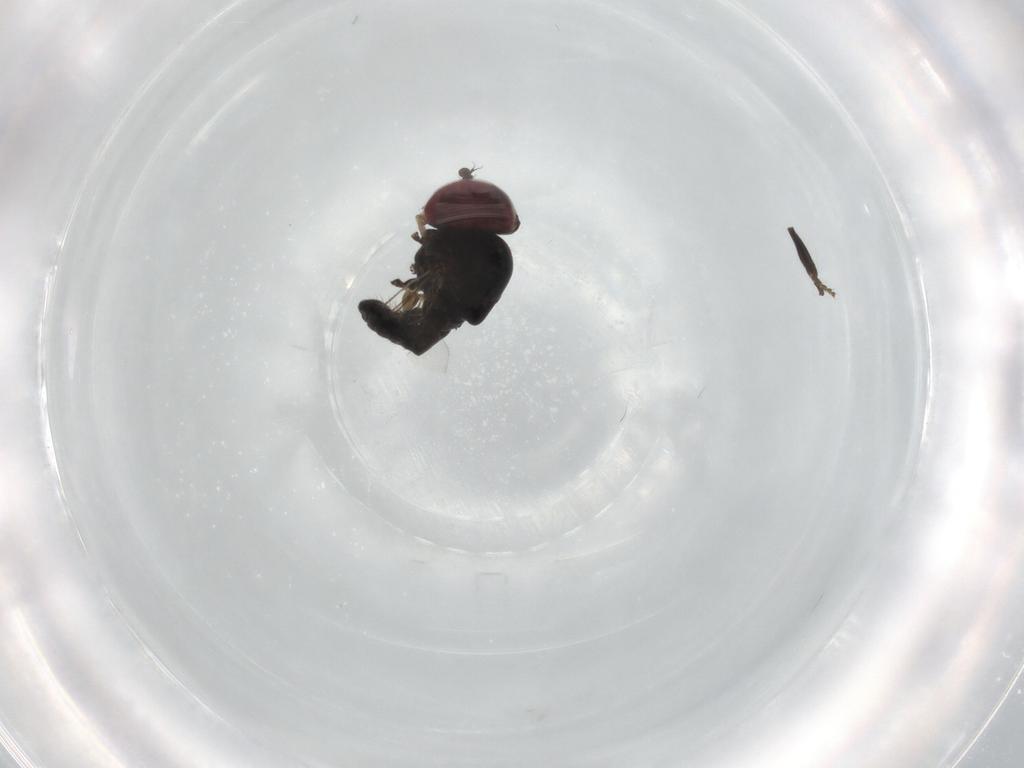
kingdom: Animalia
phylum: Arthropoda
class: Insecta
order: Diptera
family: Pipunculidae
